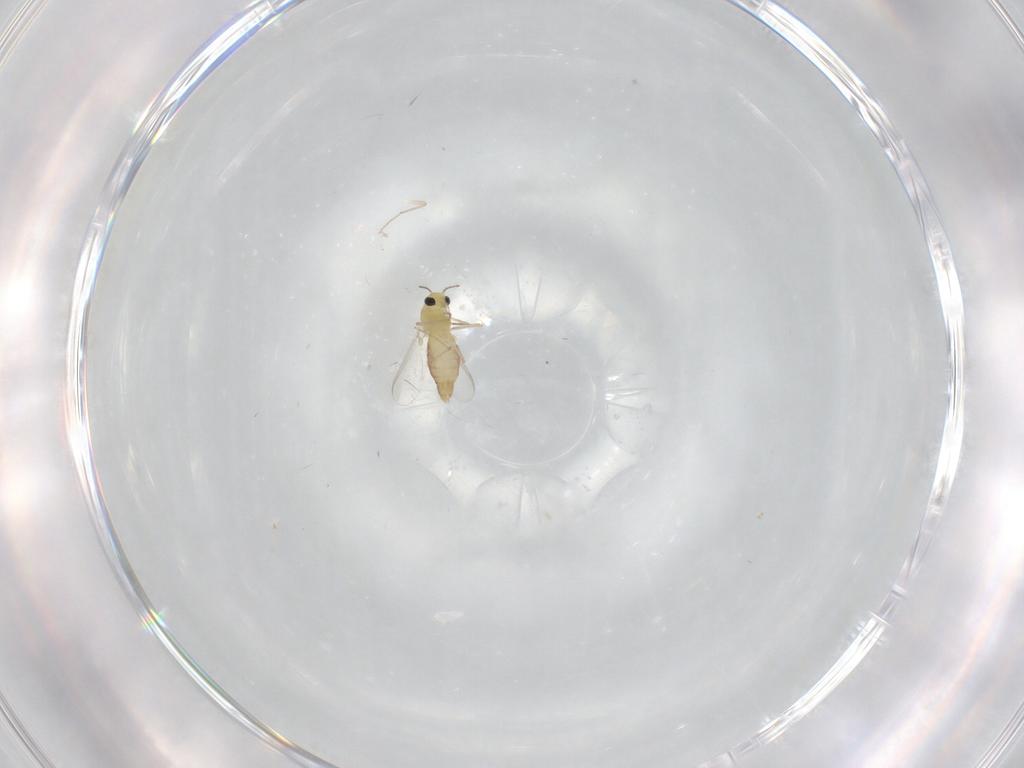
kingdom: Animalia
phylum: Arthropoda
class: Insecta
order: Diptera
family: Chironomidae
